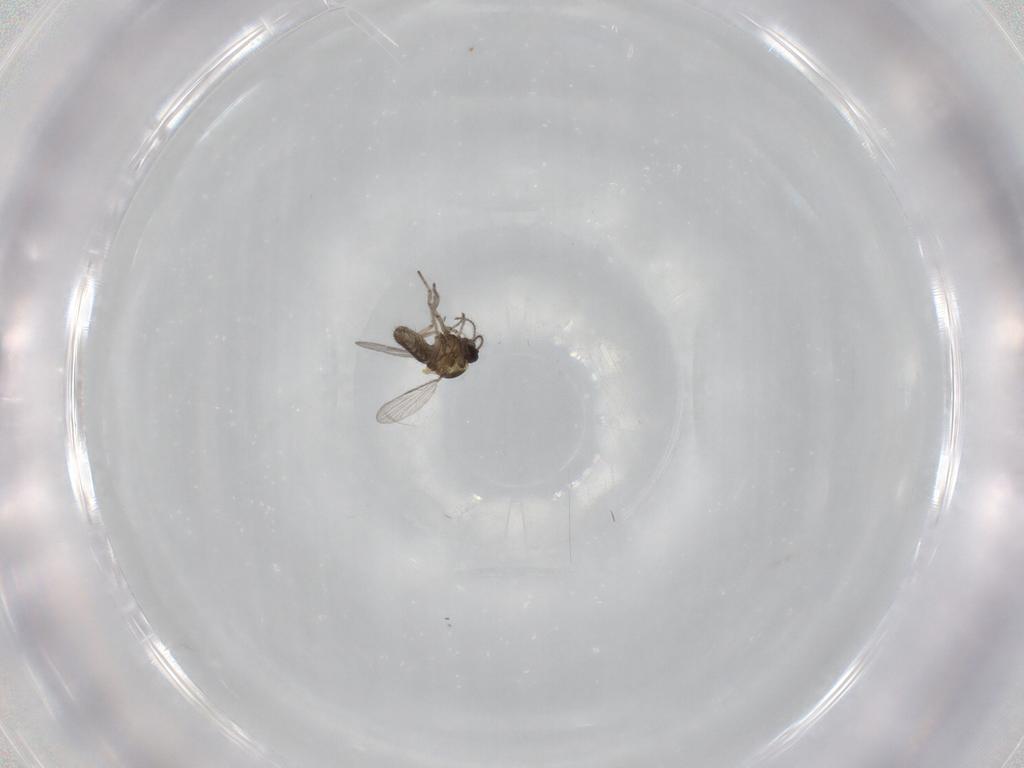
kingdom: Animalia
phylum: Arthropoda
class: Insecta
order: Diptera
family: Ceratopogonidae
